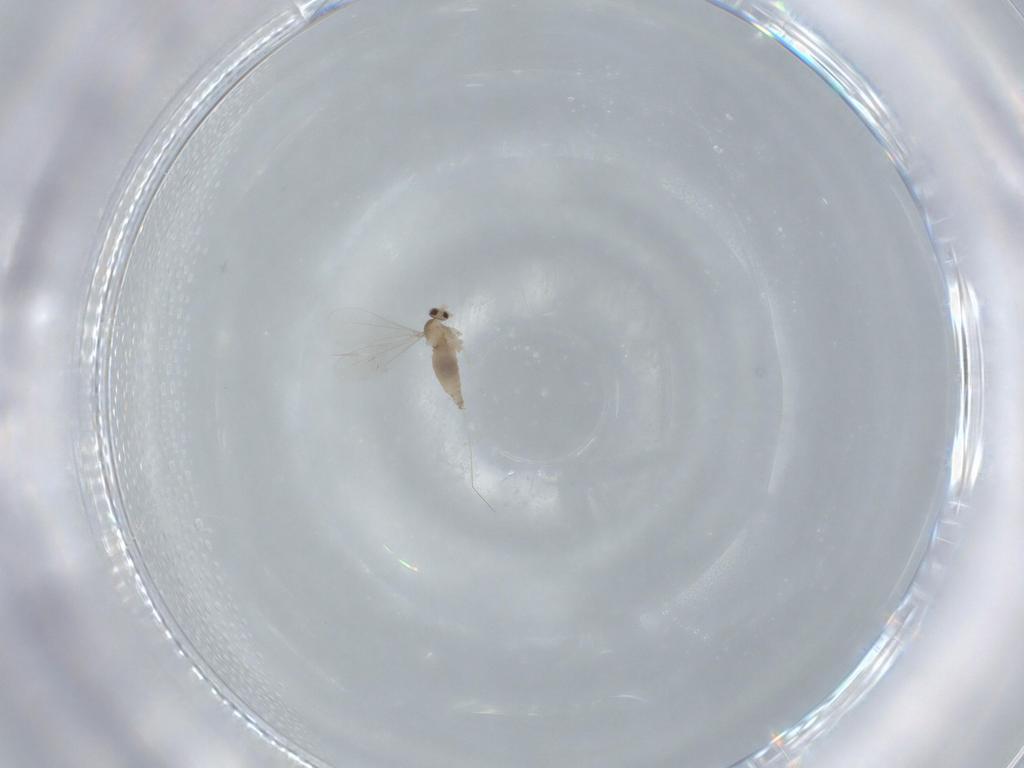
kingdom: Animalia
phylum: Arthropoda
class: Insecta
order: Diptera
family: Cecidomyiidae
